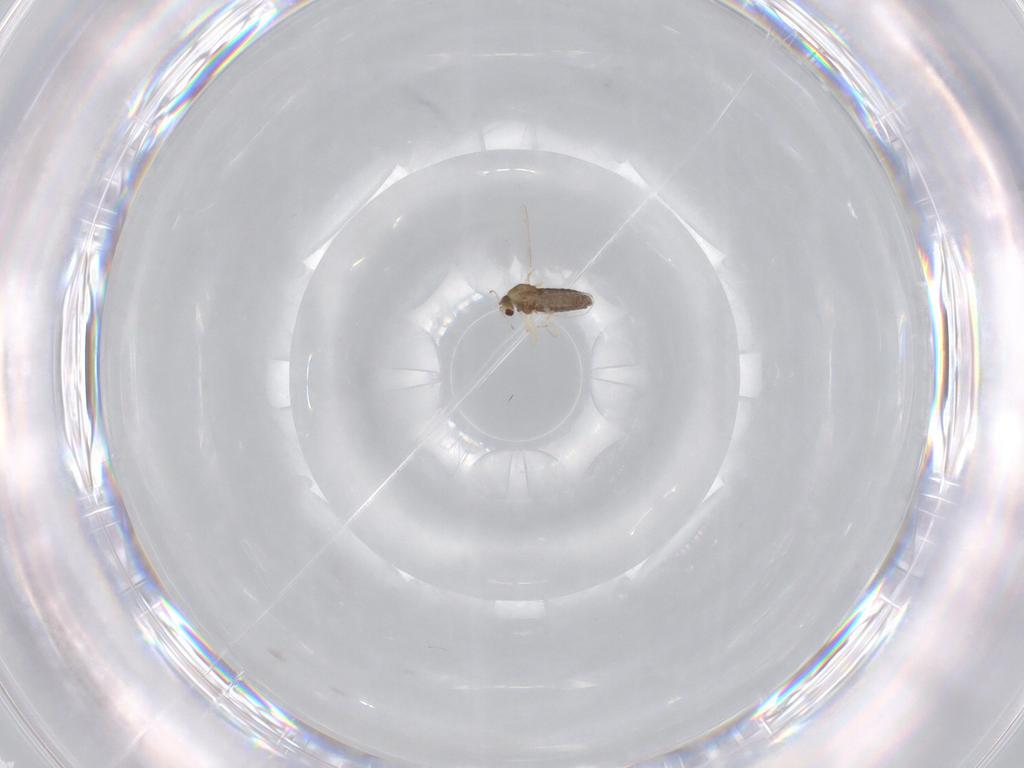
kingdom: Animalia
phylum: Arthropoda
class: Insecta
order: Diptera
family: Chironomidae
